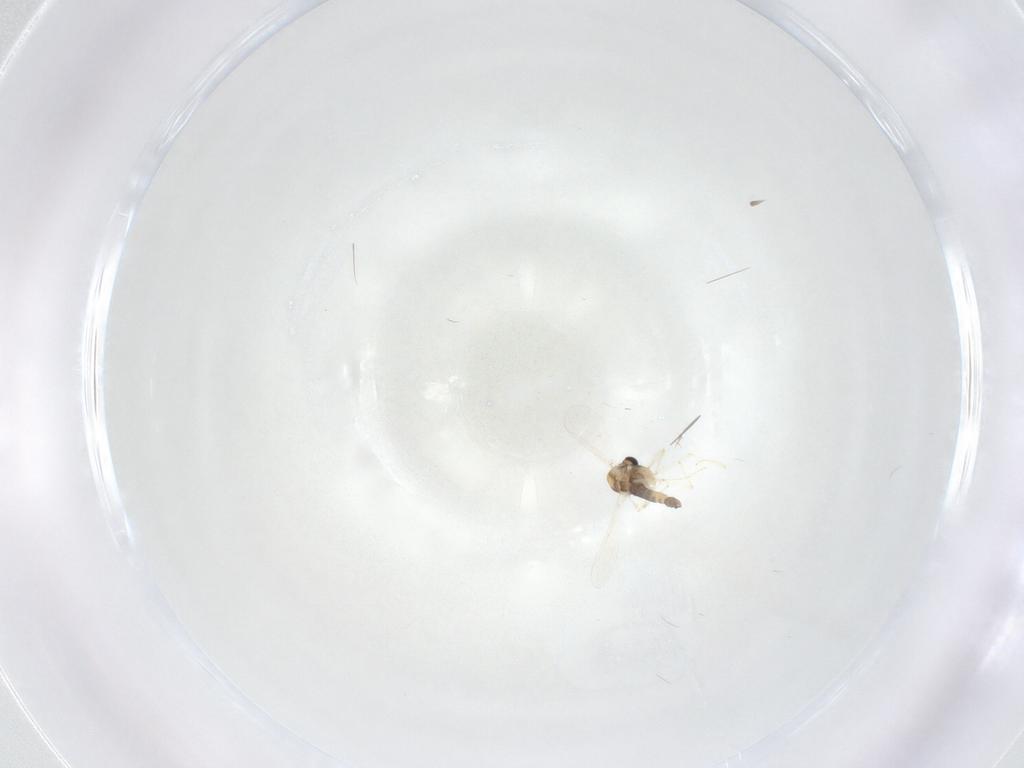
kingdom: Animalia
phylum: Arthropoda
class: Insecta
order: Diptera
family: Chironomidae
